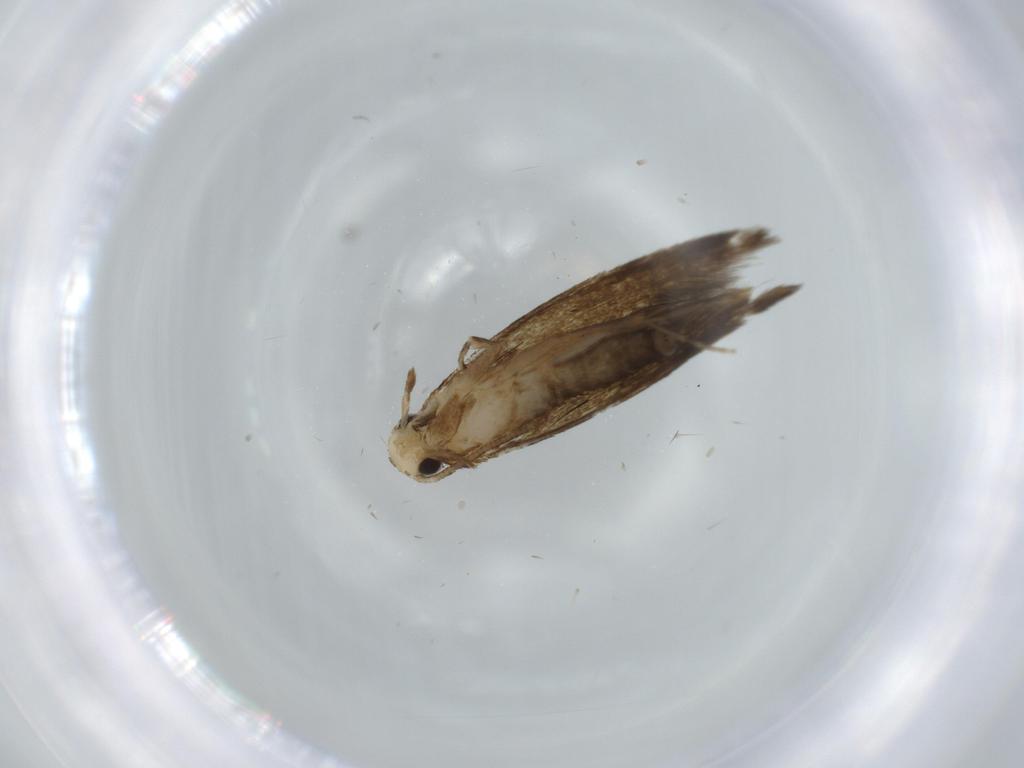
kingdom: Animalia
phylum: Arthropoda
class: Insecta
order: Lepidoptera
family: Tineidae
